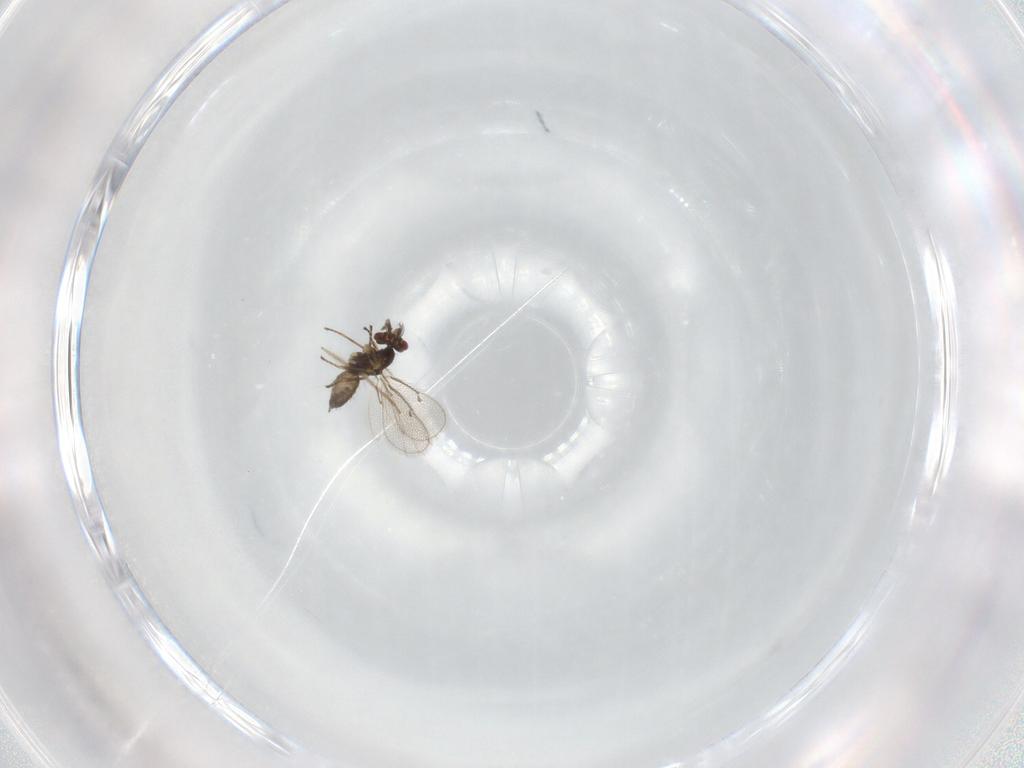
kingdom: Animalia
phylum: Arthropoda
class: Insecta
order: Hymenoptera
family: Eulophidae
